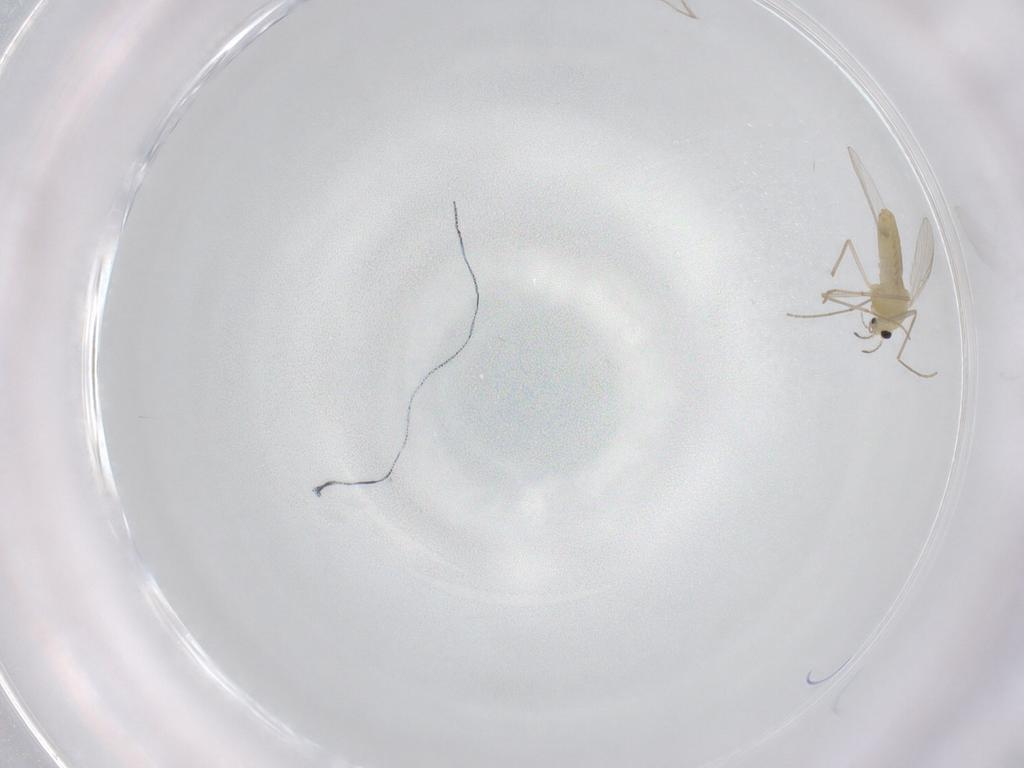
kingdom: Animalia
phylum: Arthropoda
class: Insecta
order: Diptera
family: Chironomidae
